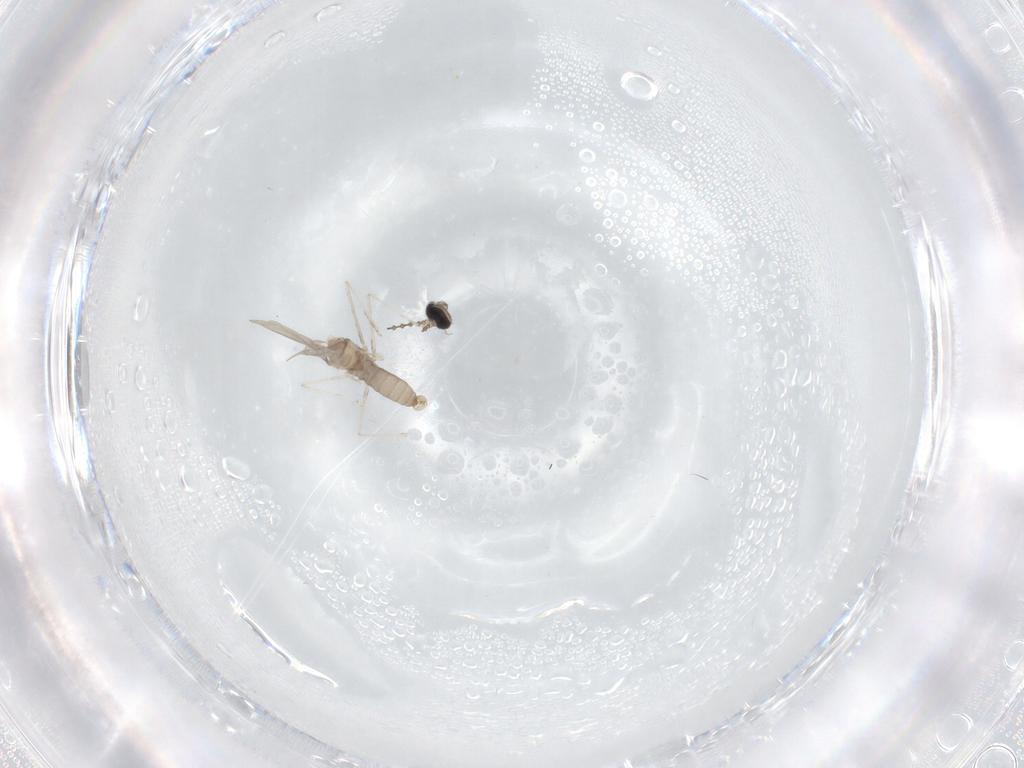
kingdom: Animalia
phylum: Arthropoda
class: Insecta
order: Diptera
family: Cecidomyiidae
